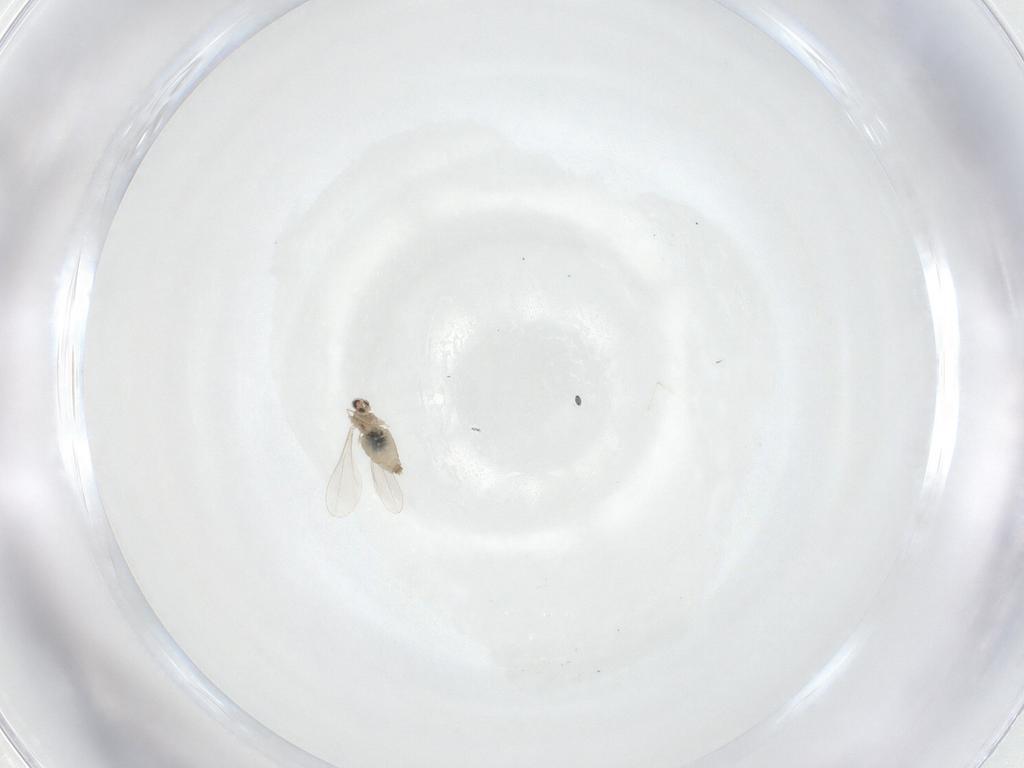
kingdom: Animalia
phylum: Arthropoda
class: Insecta
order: Diptera
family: Cecidomyiidae
